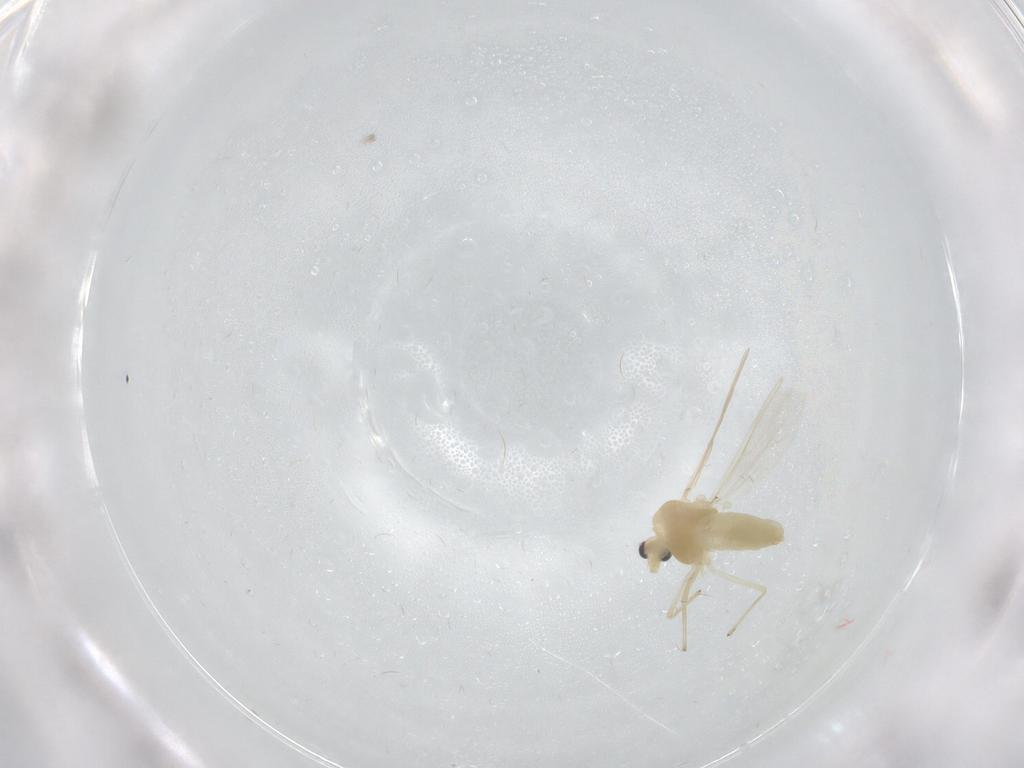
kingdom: Animalia
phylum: Arthropoda
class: Insecta
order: Diptera
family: Chironomidae
